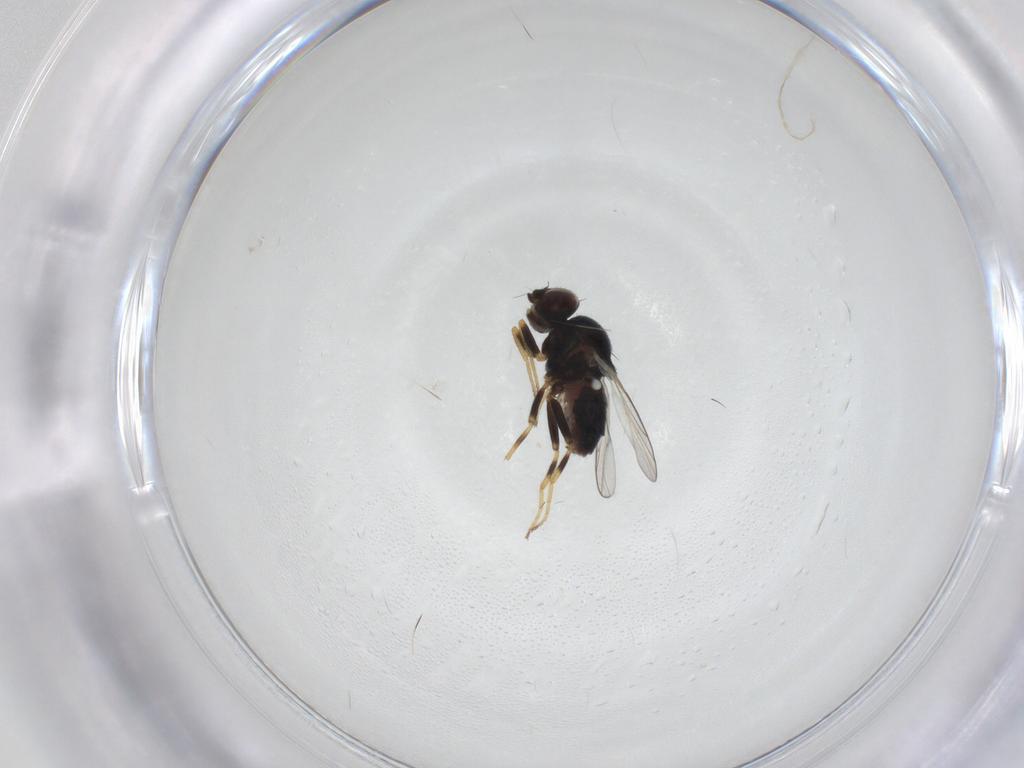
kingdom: Animalia
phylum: Arthropoda
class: Insecta
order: Diptera
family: Chloropidae
